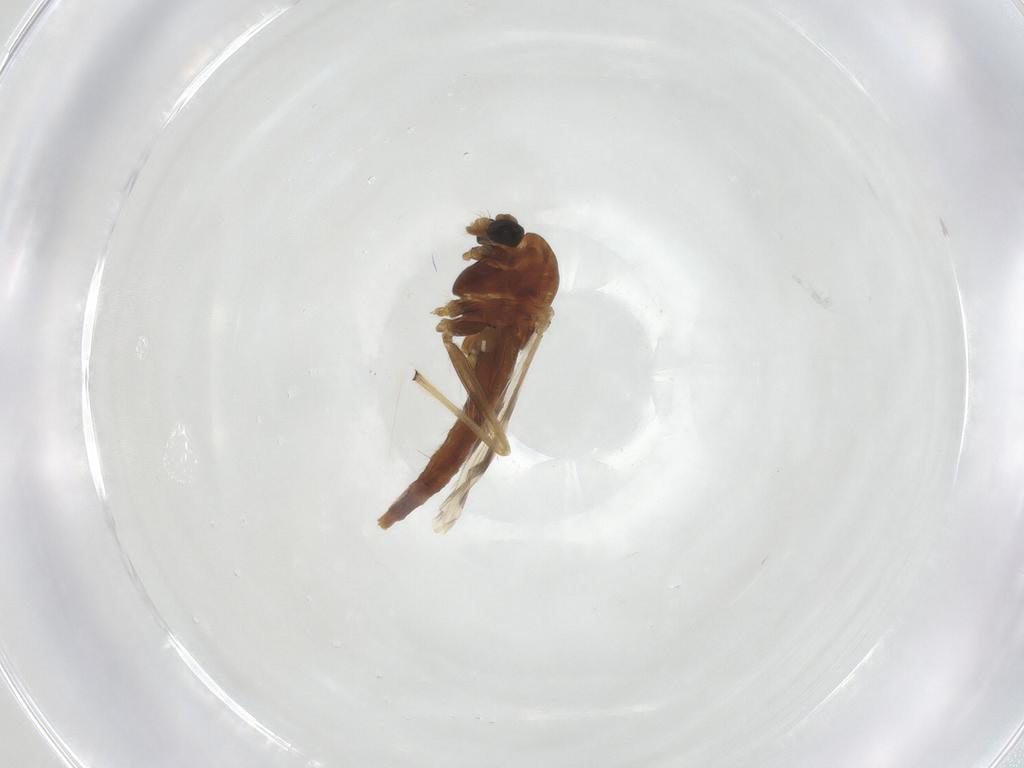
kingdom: Animalia
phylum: Arthropoda
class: Insecta
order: Diptera
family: Chironomidae
